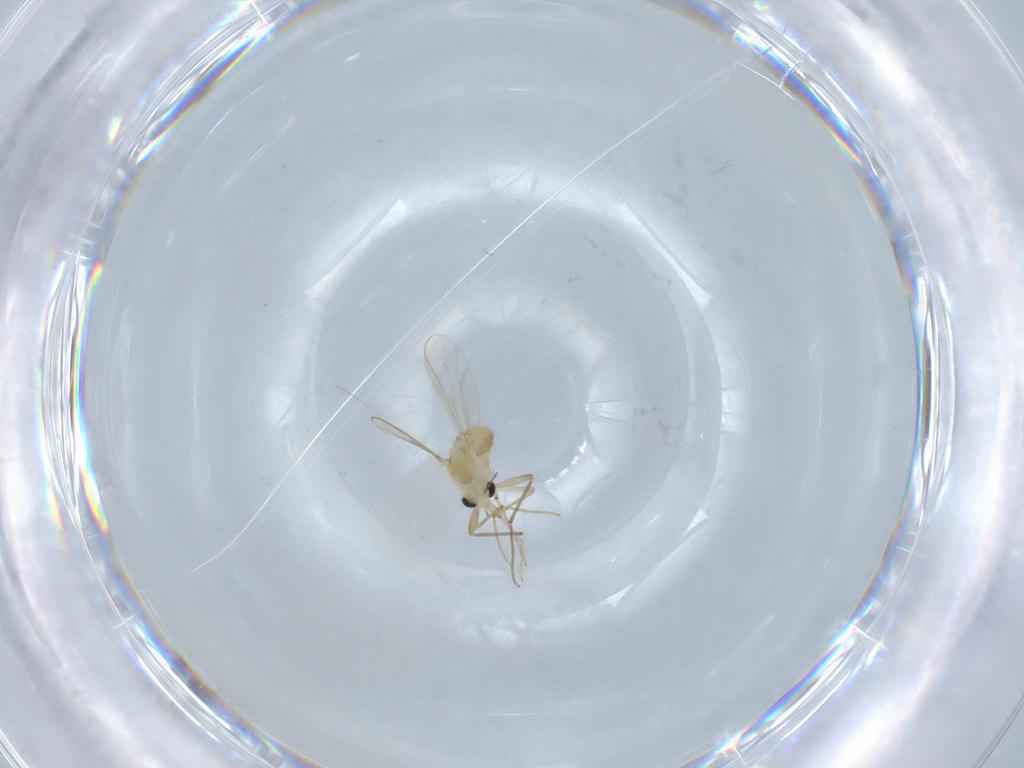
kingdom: Animalia
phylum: Arthropoda
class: Insecta
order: Diptera
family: Chironomidae
